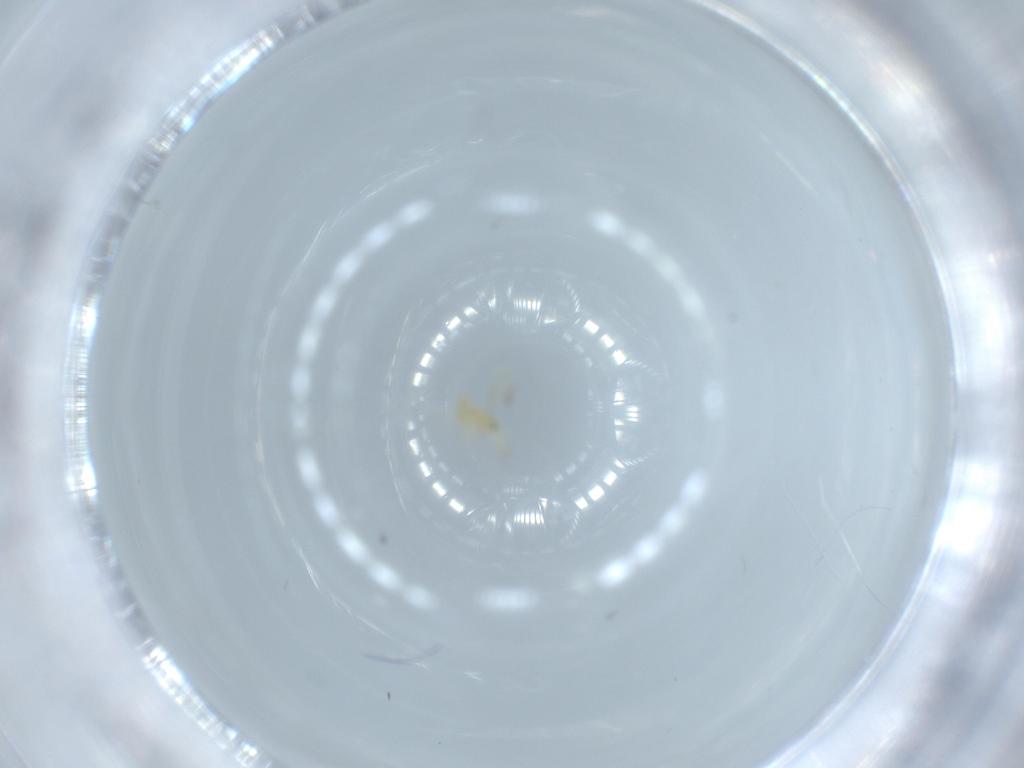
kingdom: Animalia
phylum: Arthropoda
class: Insecta
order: Hymenoptera
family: Aphelinidae
